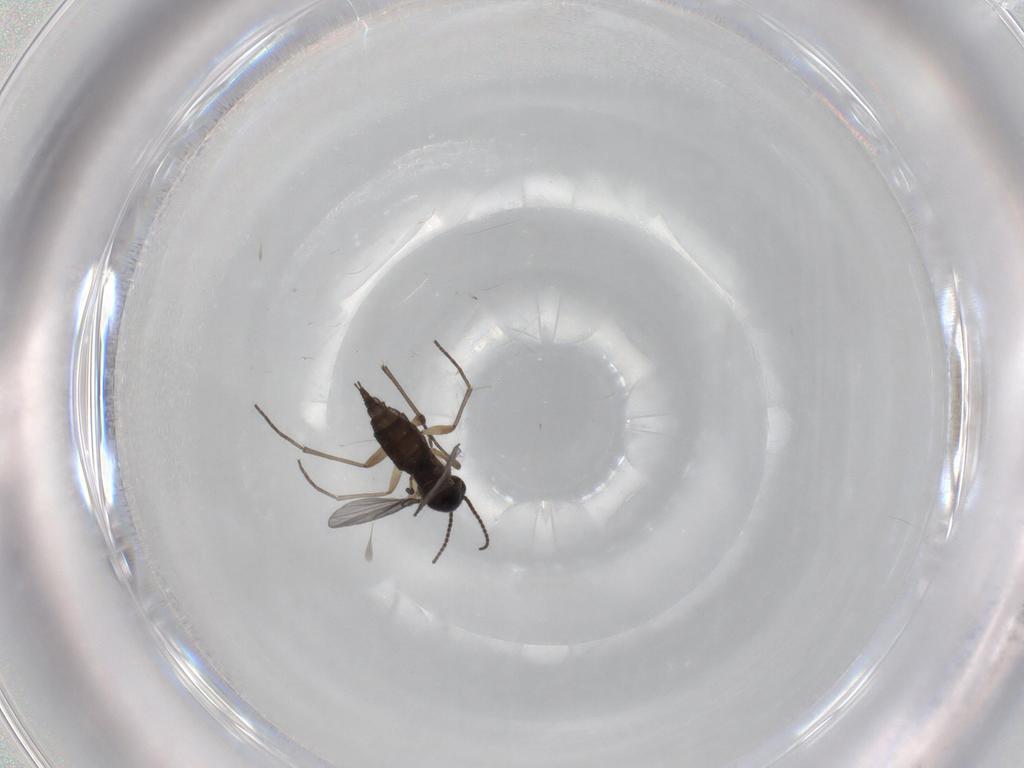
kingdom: Animalia
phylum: Arthropoda
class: Insecta
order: Diptera
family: Sciaridae
